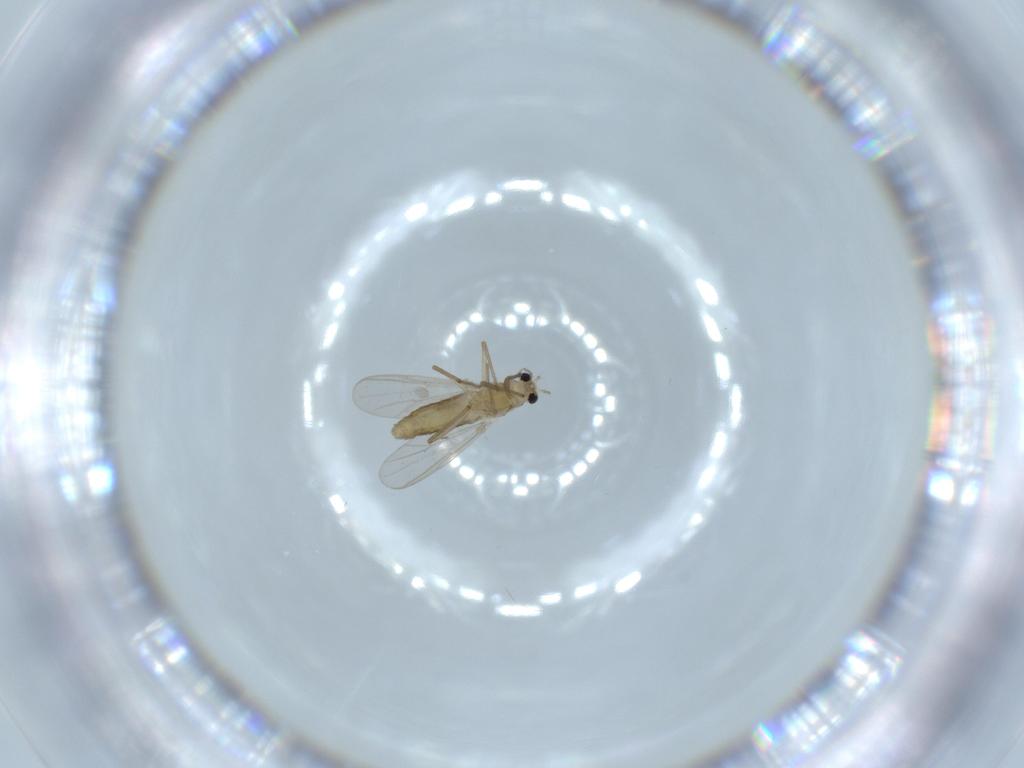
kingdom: Animalia
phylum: Arthropoda
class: Insecta
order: Diptera
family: Chironomidae
